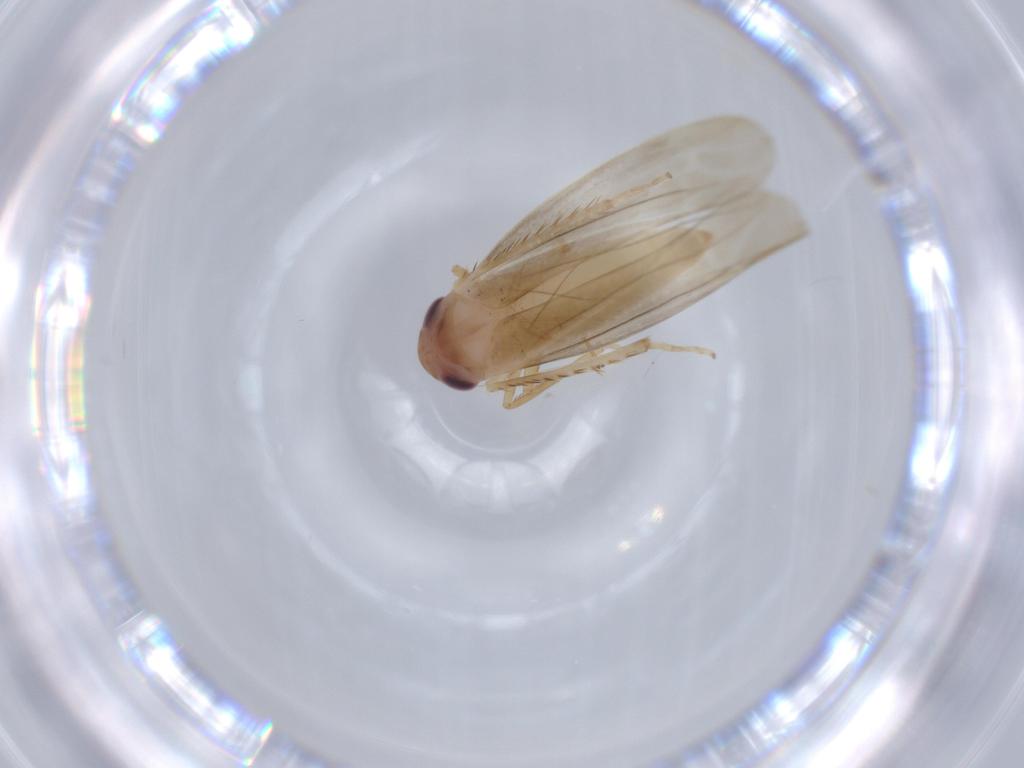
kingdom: Animalia
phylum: Arthropoda
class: Insecta
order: Hemiptera
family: Cicadellidae
